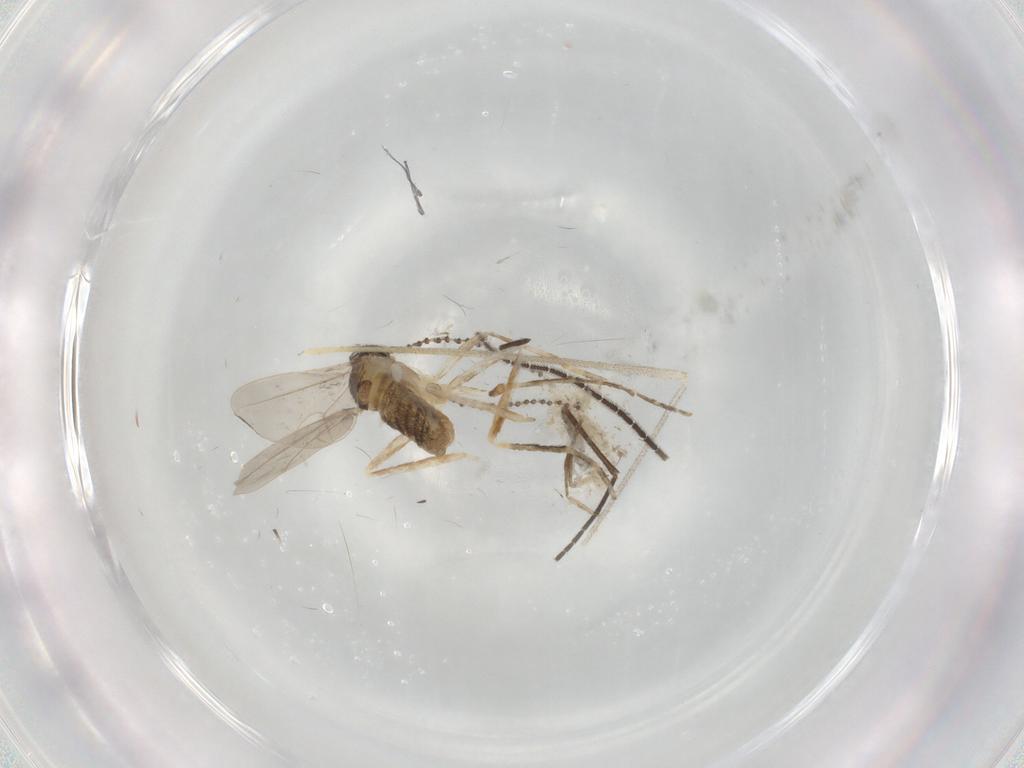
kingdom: Animalia
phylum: Arthropoda
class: Insecta
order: Diptera
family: Sciaridae
